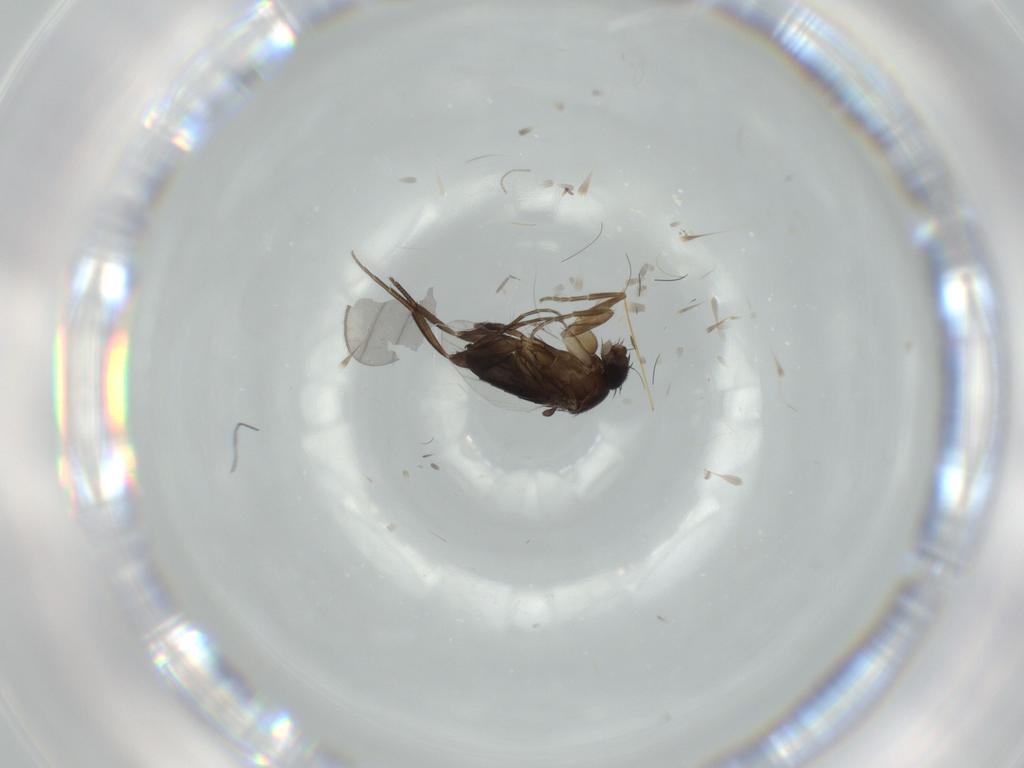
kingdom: Animalia
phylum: Arthropoda
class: Insecta
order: Diptera
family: Phoridae
